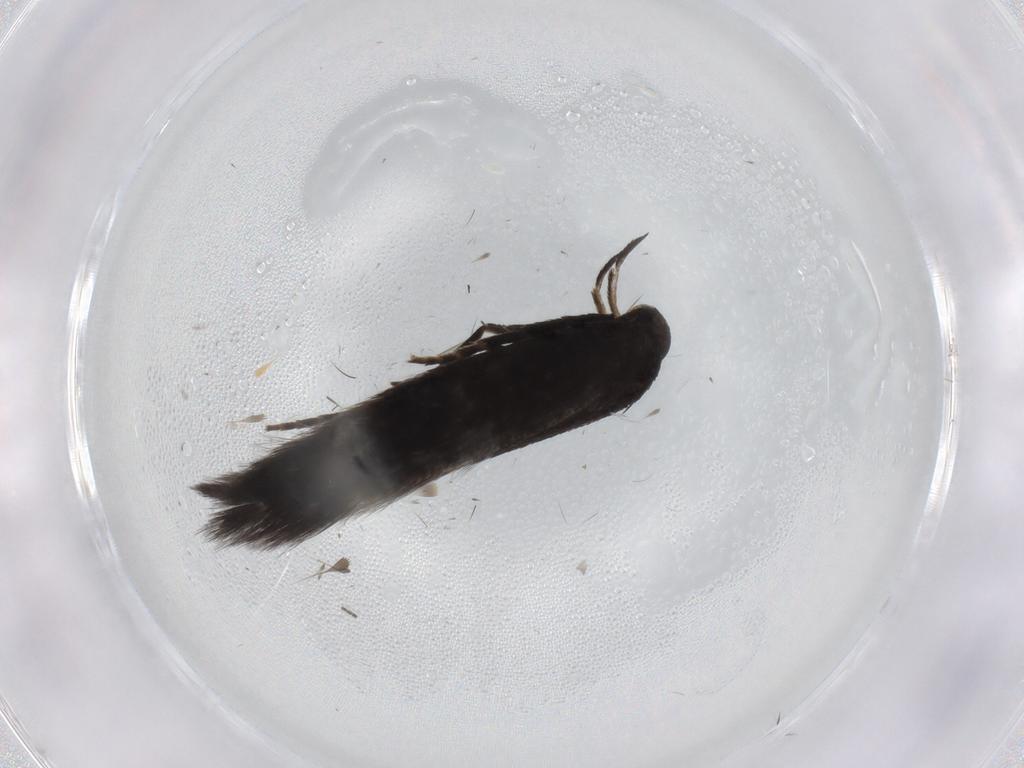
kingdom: Animalia
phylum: Arthropoda
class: Insecta
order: Lepidoptera
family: Elachistidae
